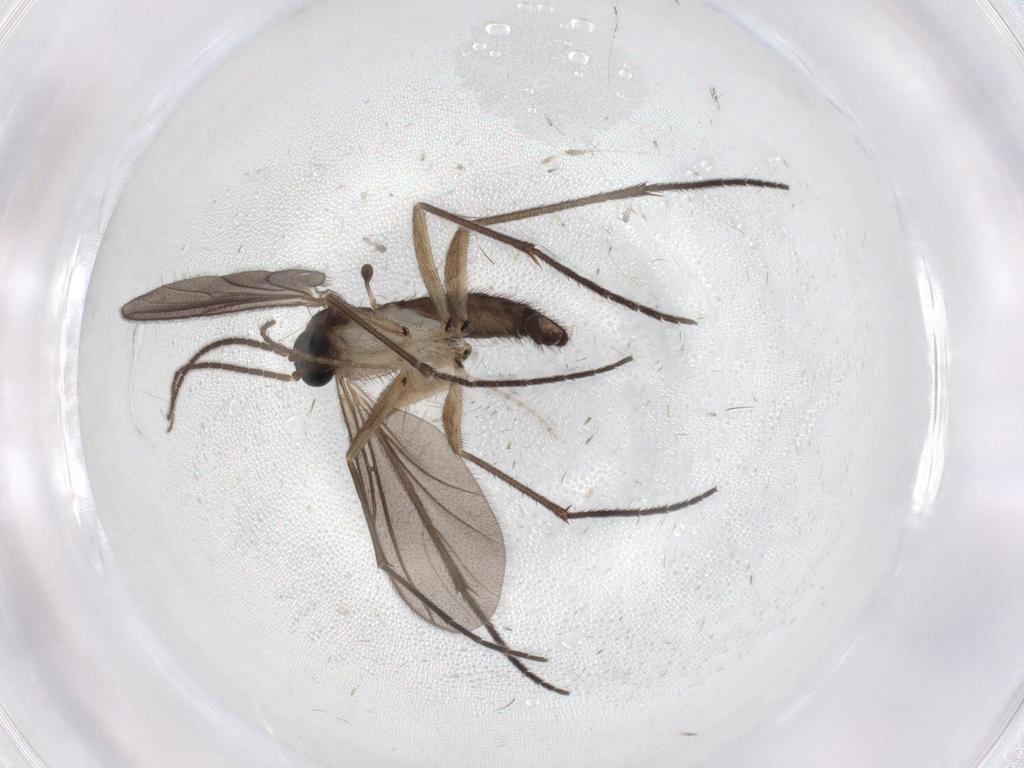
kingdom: Animalia
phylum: Arthropoda
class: Insecta
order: Diptera
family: Sciaridae
